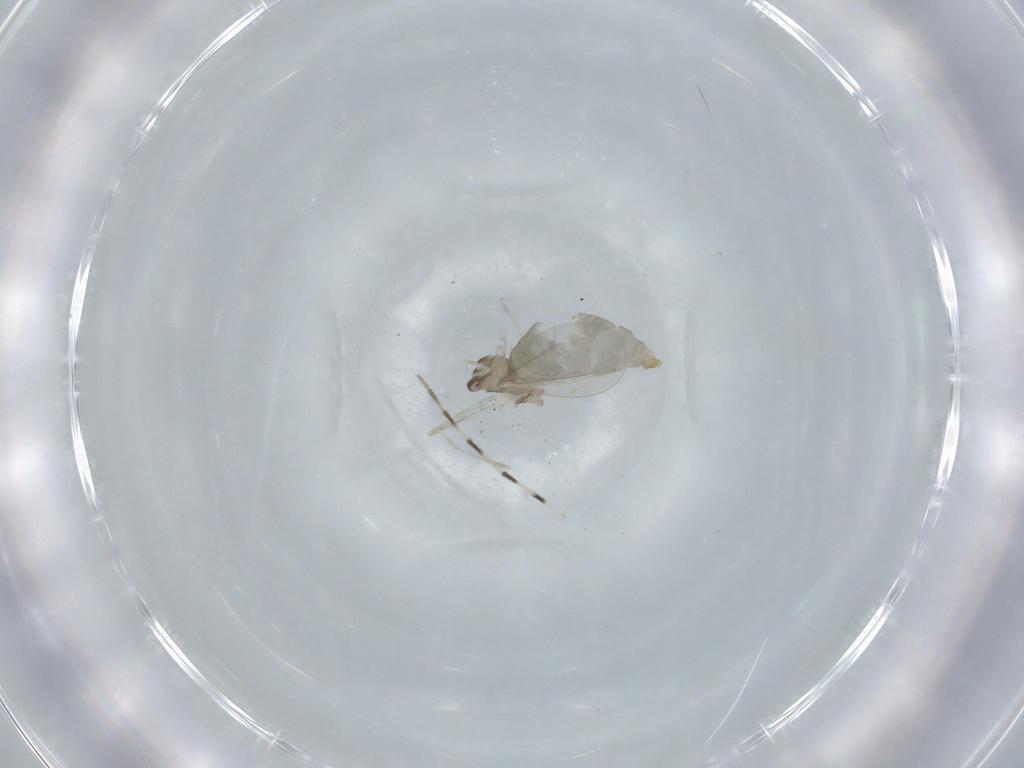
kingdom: Animalia
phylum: Arthropoda
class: Insecta
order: Diptera
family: Cecidomyiidae
